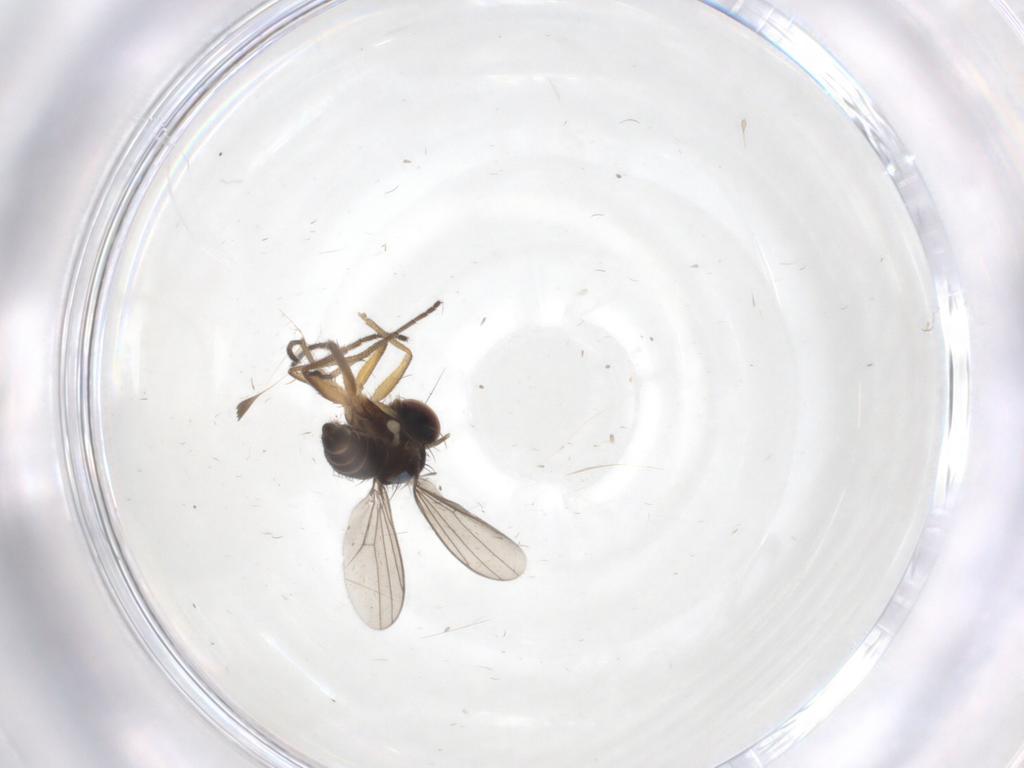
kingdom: Animalia
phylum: Arthropoda
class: Insecta
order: Diptera
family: Dolichopodidae
